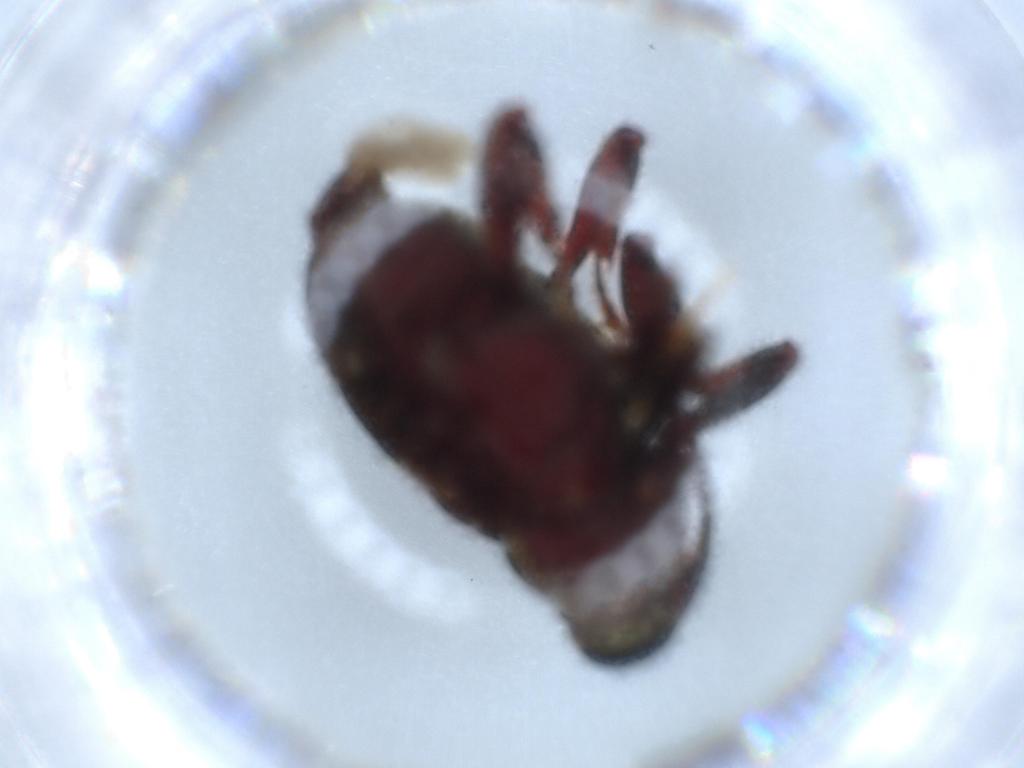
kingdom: Animalia
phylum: Arthropoda
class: Insecta
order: Coleoptera
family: Curculionidae
